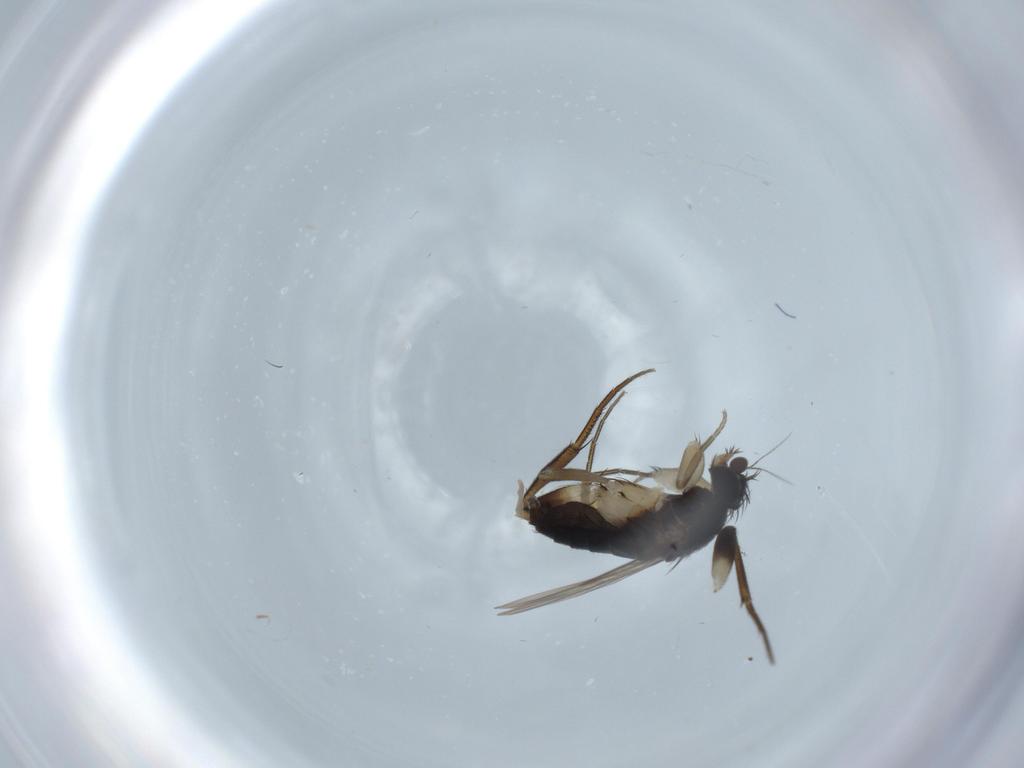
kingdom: Animalia
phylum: Arthropoda
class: Insecta
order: Diptera
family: Phoridae
